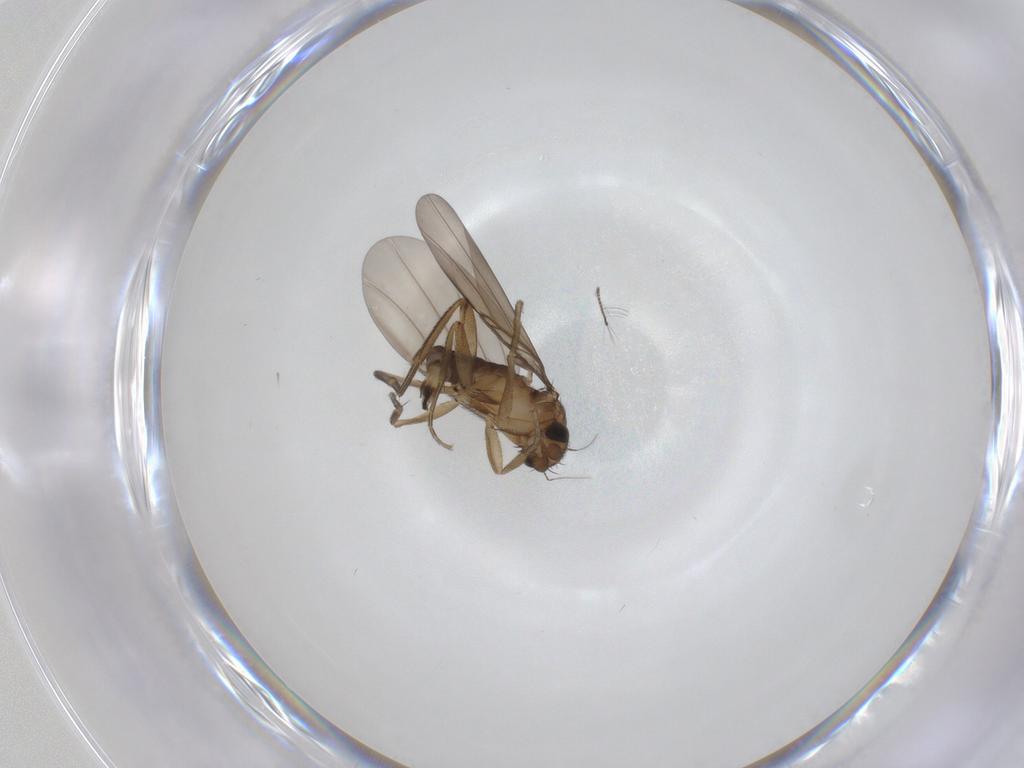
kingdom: Animalia
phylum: Arthropoda
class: Insecta
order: Diptera
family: Phoridae
